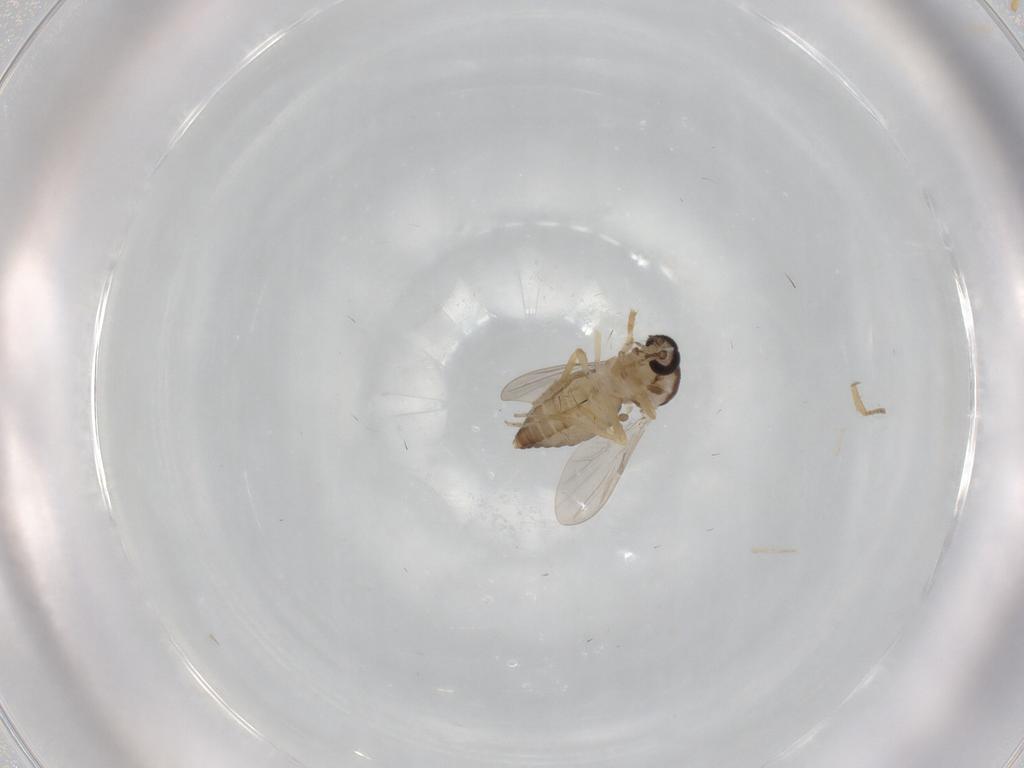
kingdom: Animalia
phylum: Arthropoda
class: Insecta
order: Diptera
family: Ceratopogonidae
